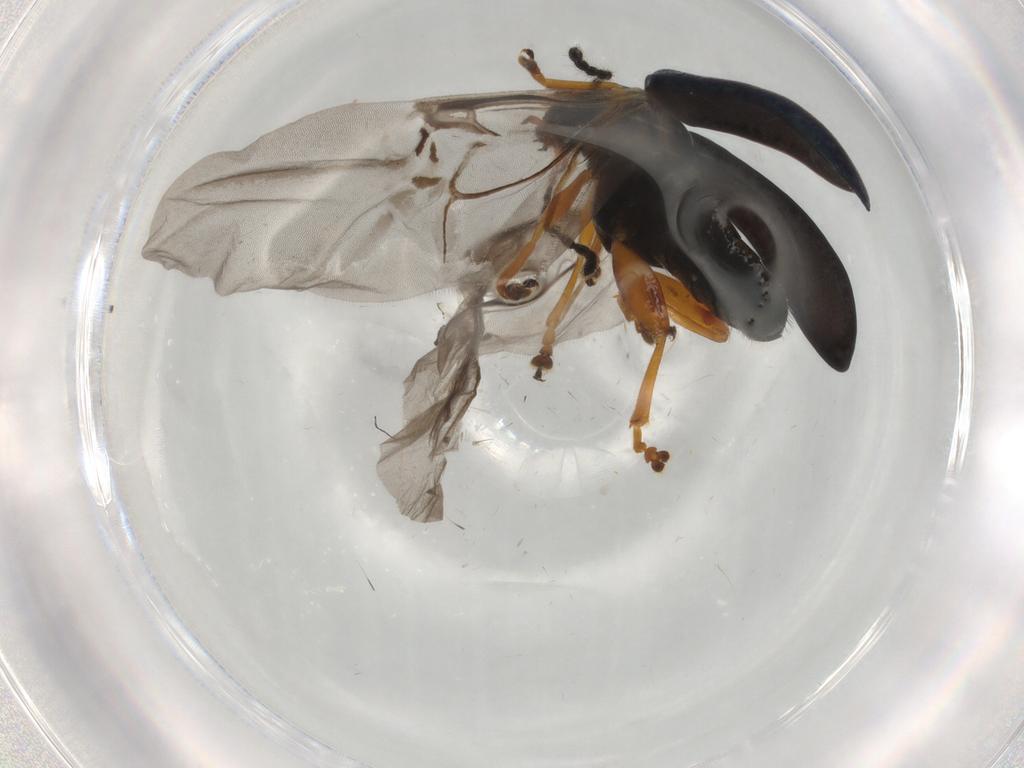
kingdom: Animalia
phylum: Arthropoda
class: Insecta
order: Coleoptera
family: Chrysomelidae
